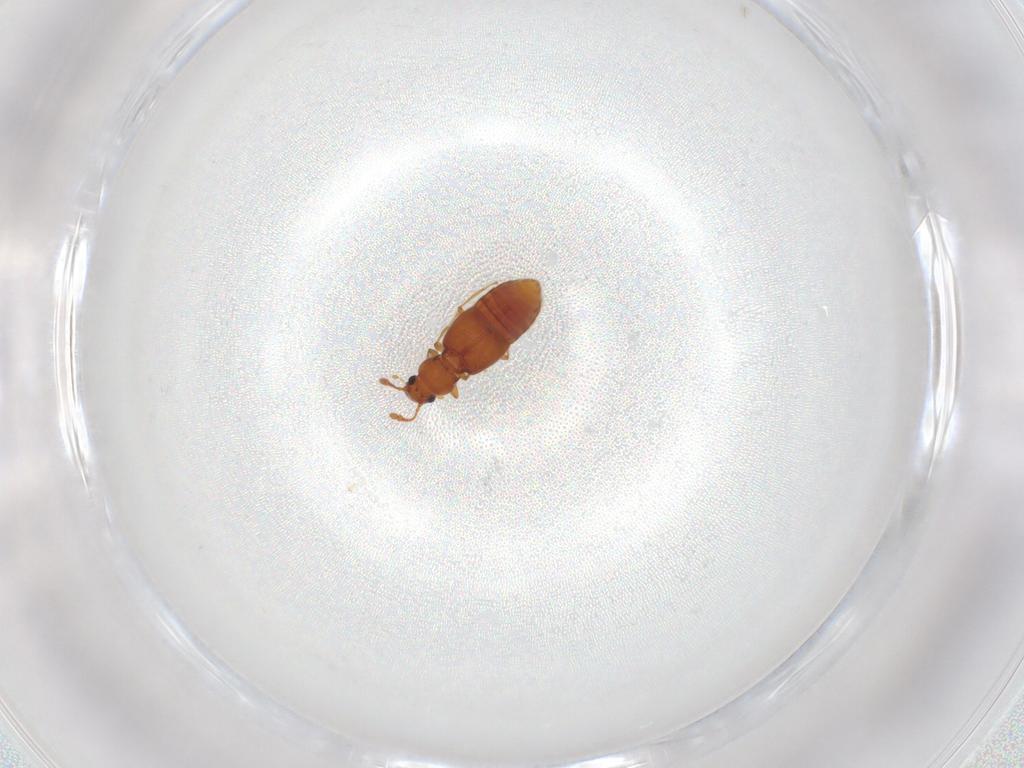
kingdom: Animalia
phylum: Arthropoda
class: Insecta
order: Coleoptera
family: Staphylinidae
